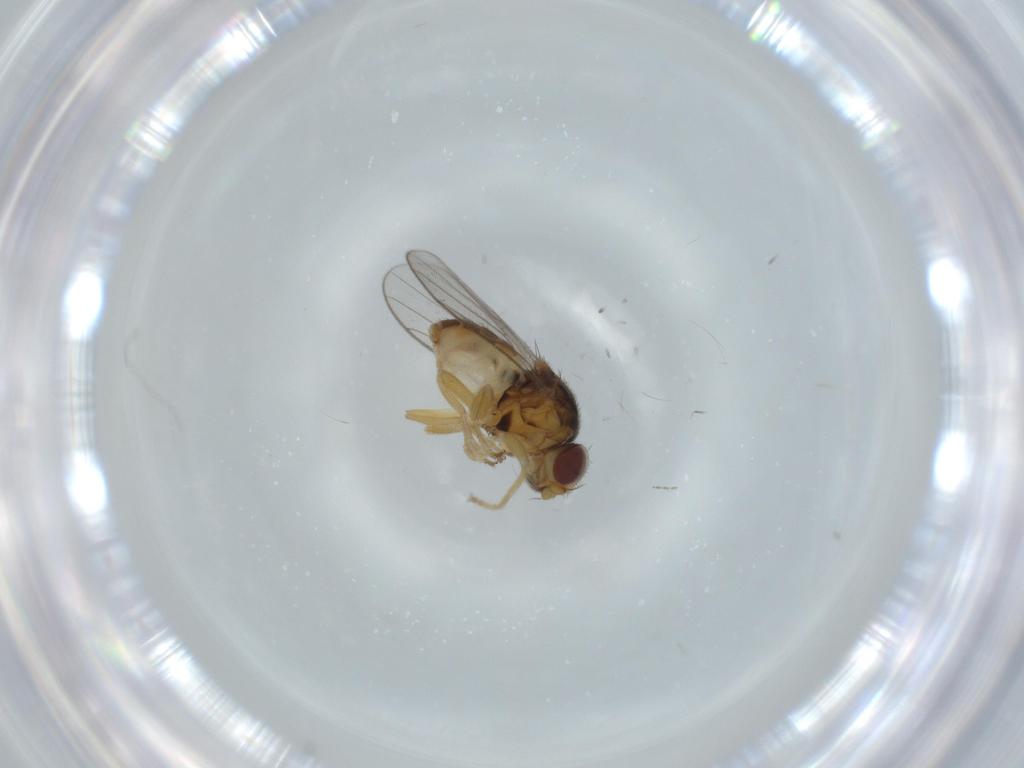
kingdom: Animalia
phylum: Arthropoda
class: Insecta
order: Diptera
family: Chloropidae
